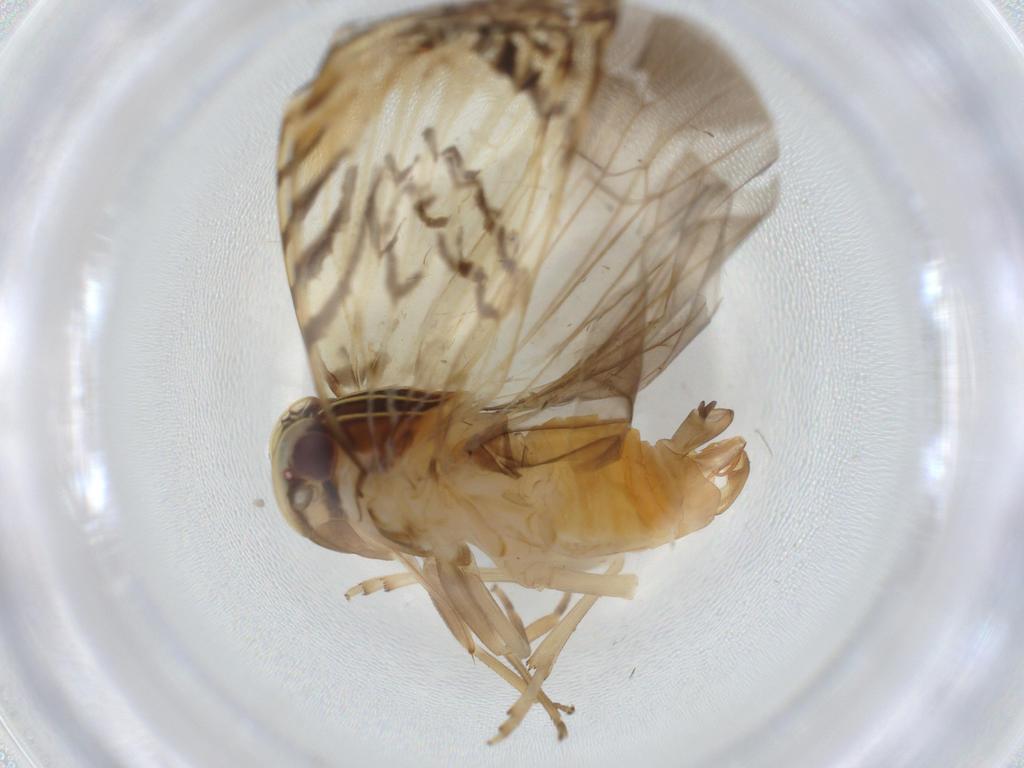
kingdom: Animalia
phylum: Arthropoda
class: Insecta
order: Hemiptera
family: Cixiidae
